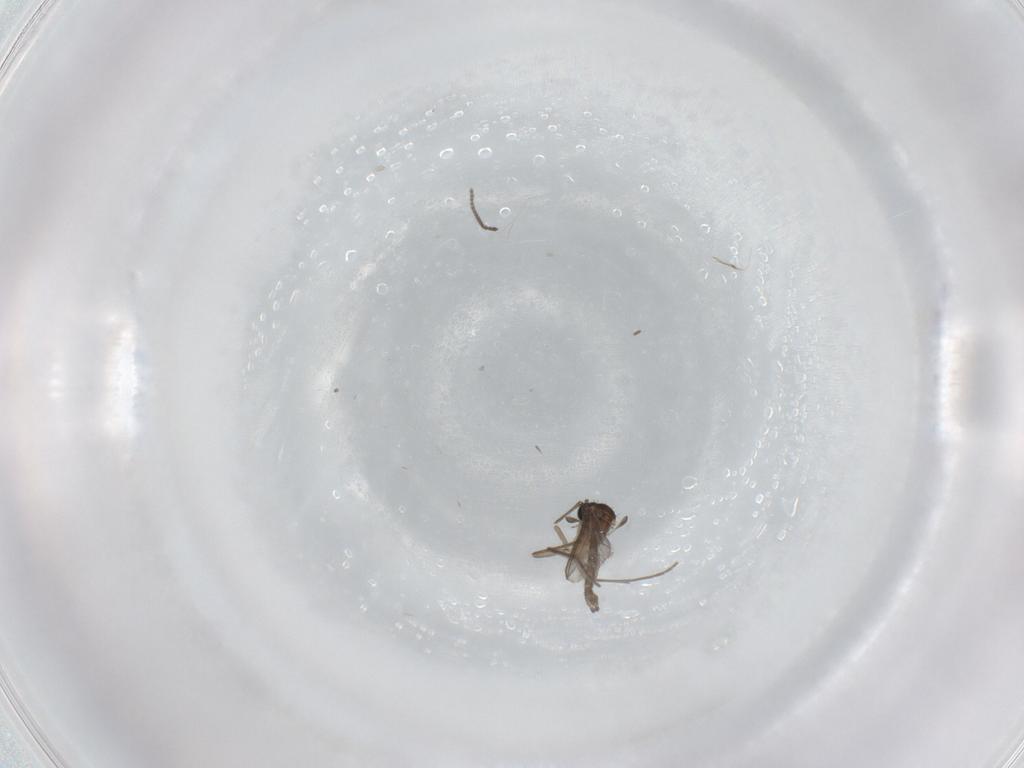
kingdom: Animalia
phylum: Arthropoda
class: Insecta
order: Diptera
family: Sciaridae
